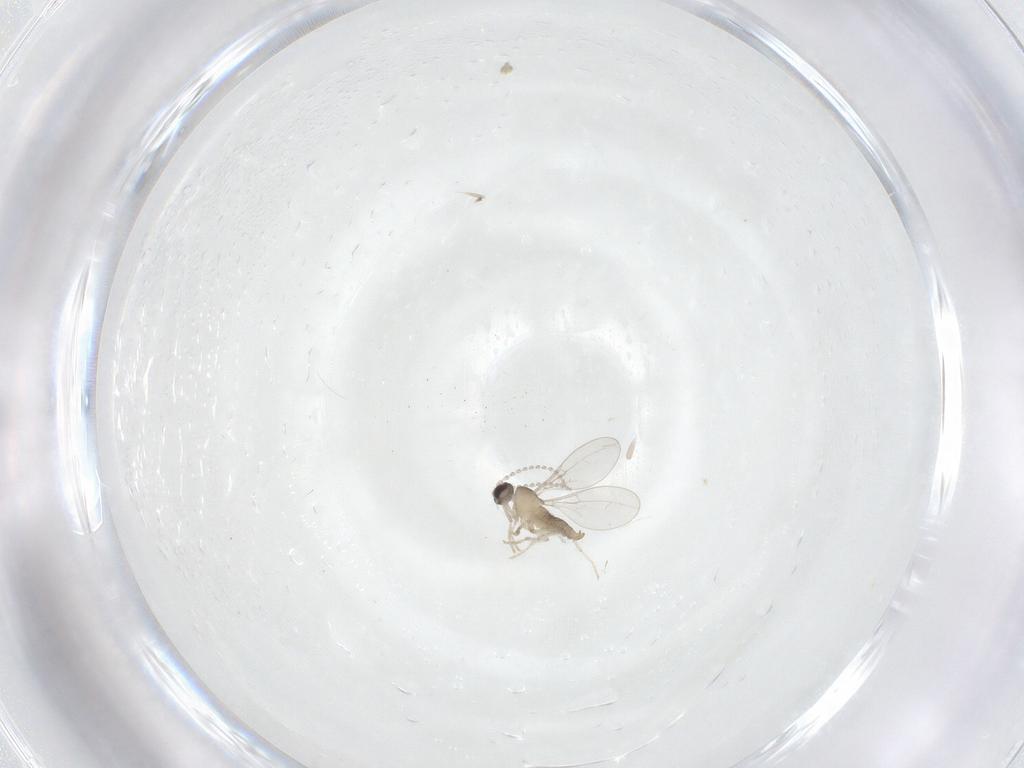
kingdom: Animalia
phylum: Arthropoda
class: Insecta
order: Diptera
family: Cecidomyiidae
